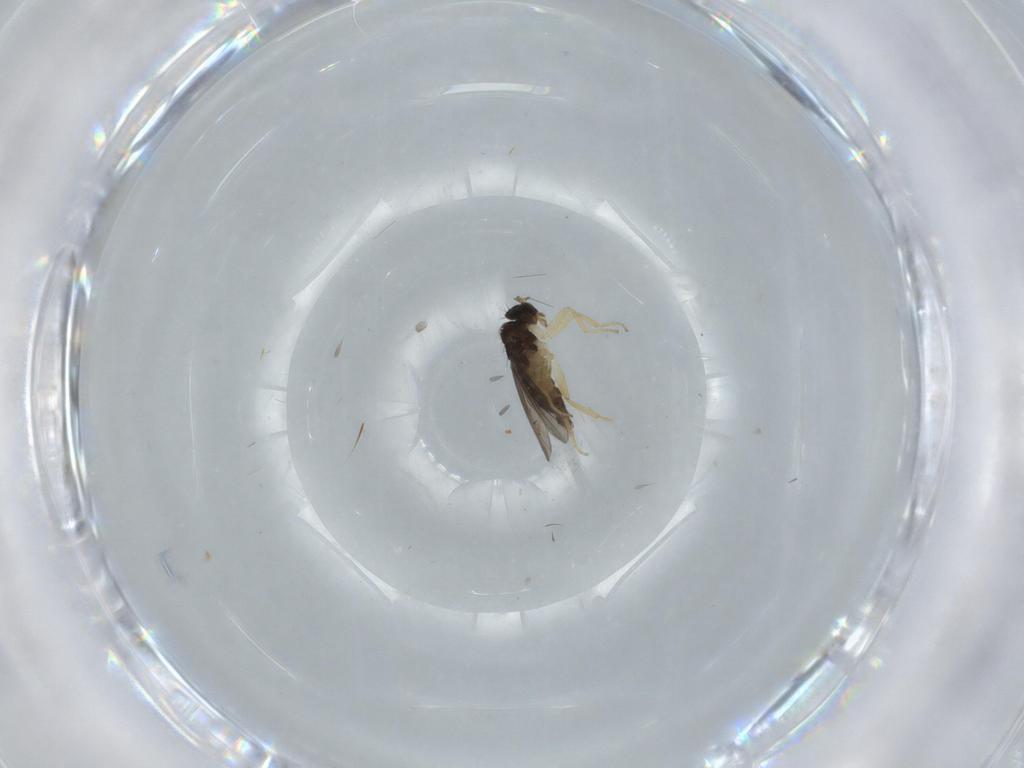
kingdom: Animalia
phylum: Arthropoda
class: Insecta
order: Diptera
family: Hybotidae
